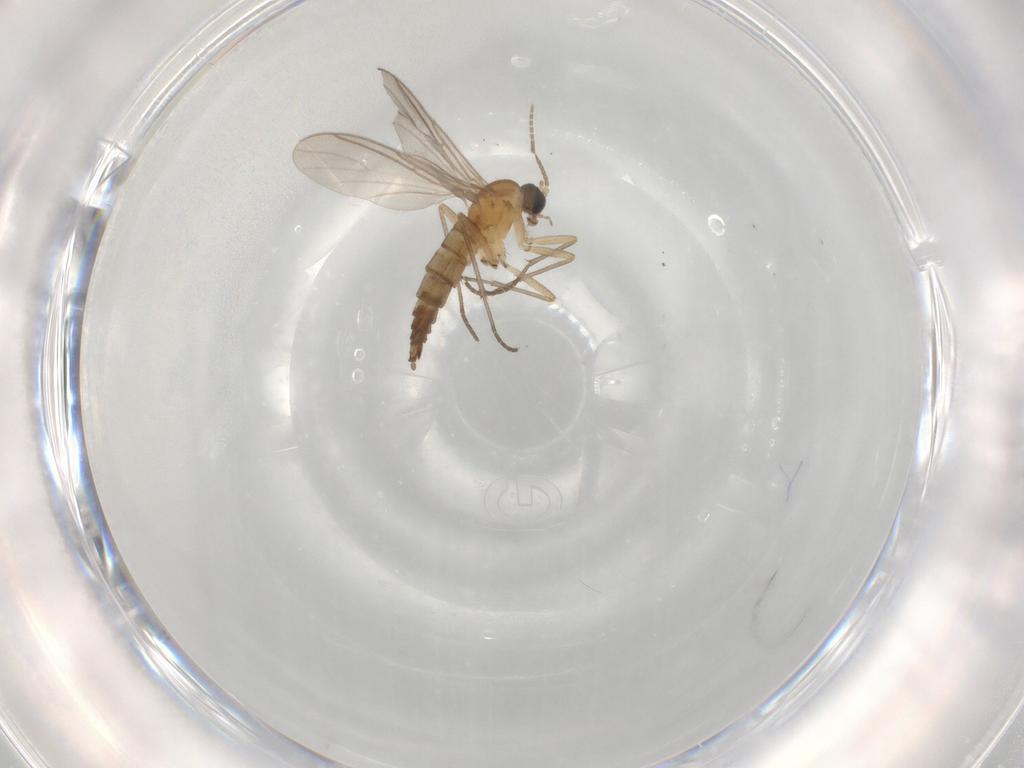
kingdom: Animalia
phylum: Arthropoda
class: Insecta
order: Diptera
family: Sciaridae
